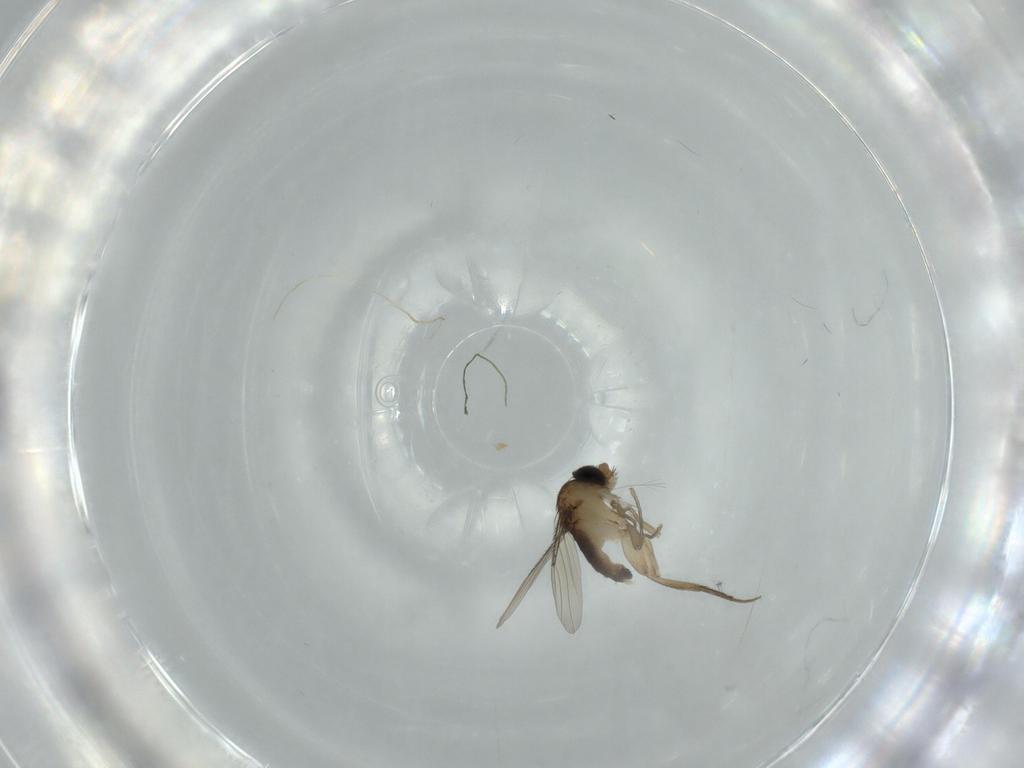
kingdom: Animalia
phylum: Arthropoda
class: Insecta
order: Diptera
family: Phoridae
